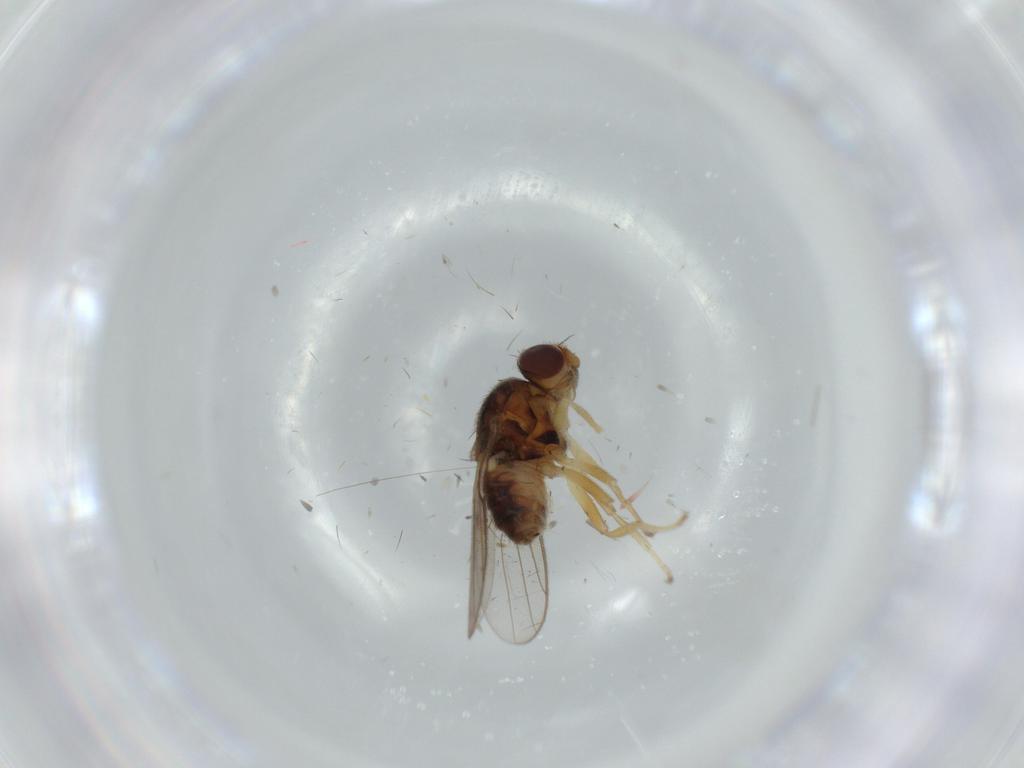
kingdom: Animalia
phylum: Arthropoda
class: Insecta
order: Diptera
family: Chloropidae
